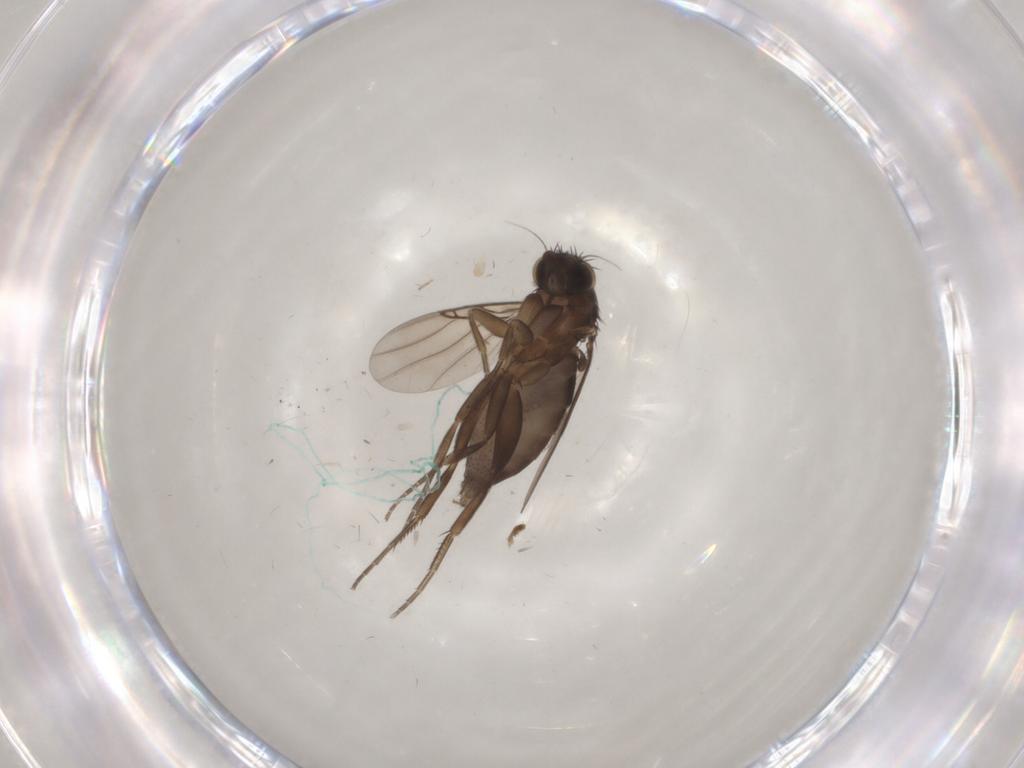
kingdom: Animalia
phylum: Arthropoda
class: Insecta
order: Diptera
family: Phoridae
